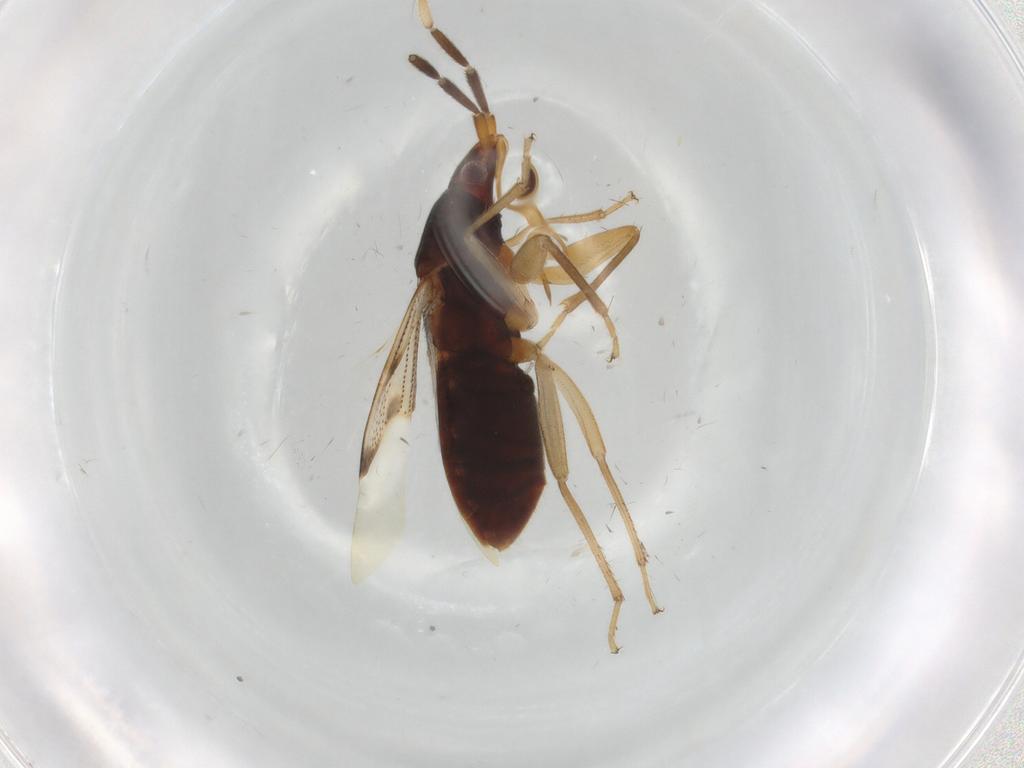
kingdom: Animalia
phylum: Arthropoda
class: Insecta
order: Hemiptera
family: Rhyparochromidae
